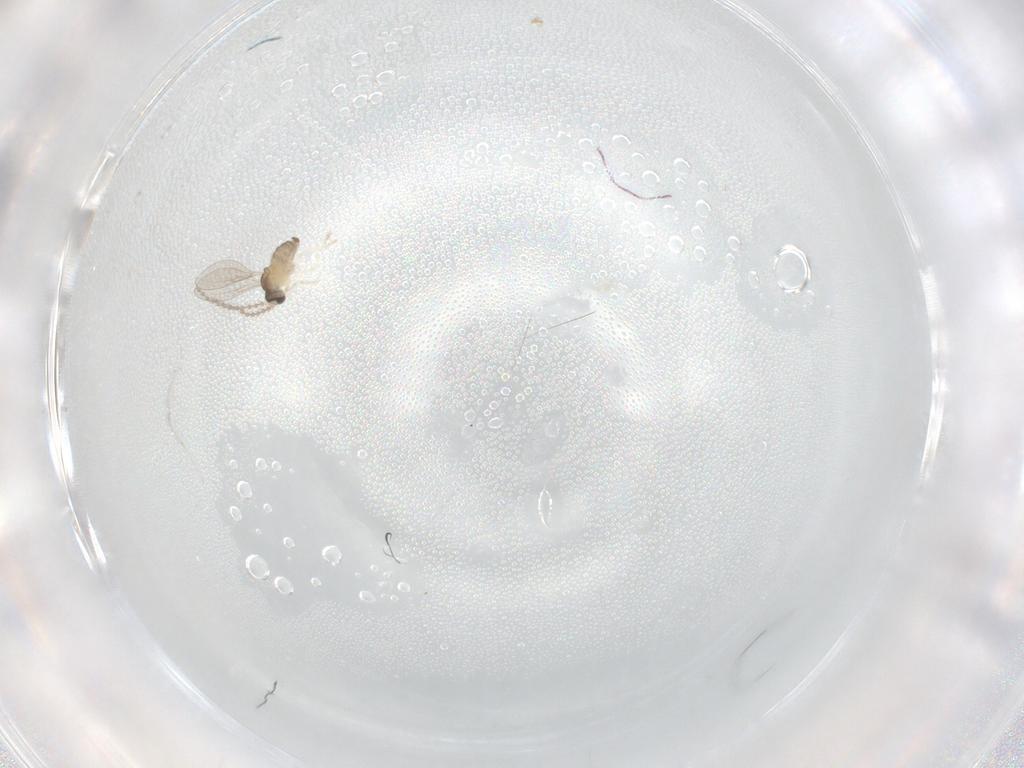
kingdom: Animalia
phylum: Arthropoda
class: Insecta
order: Diptera
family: Cecidomyiidae
